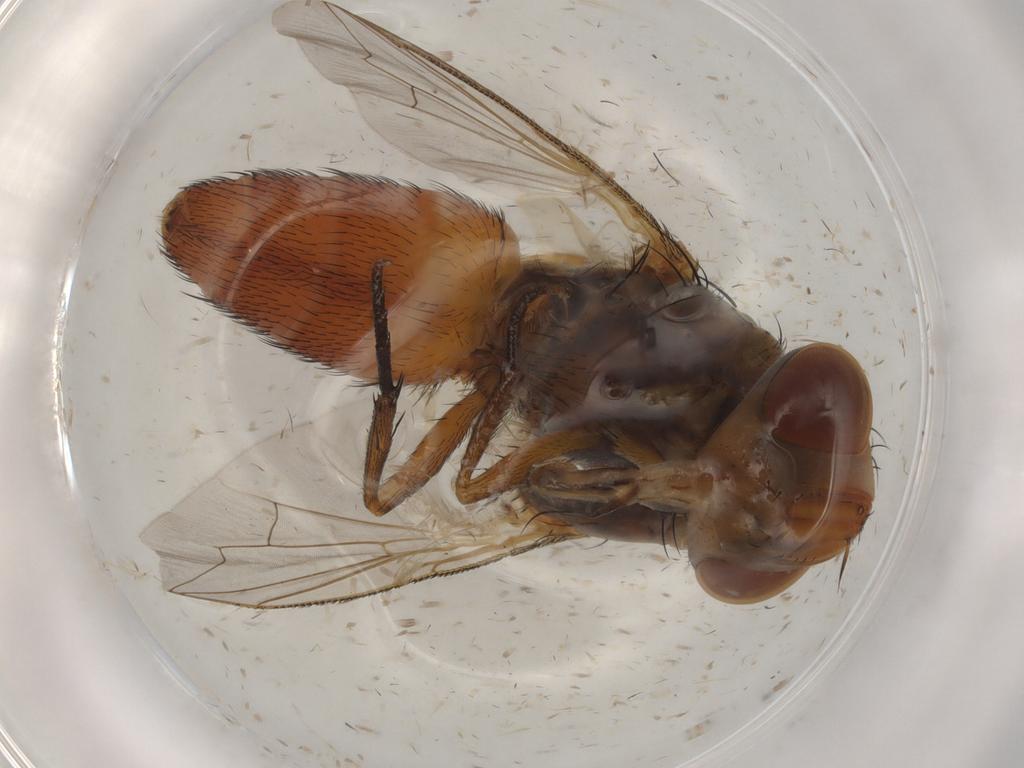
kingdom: Animalia
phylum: Arthropoda
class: Insecta
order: Diptera
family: Sarcophagidae
